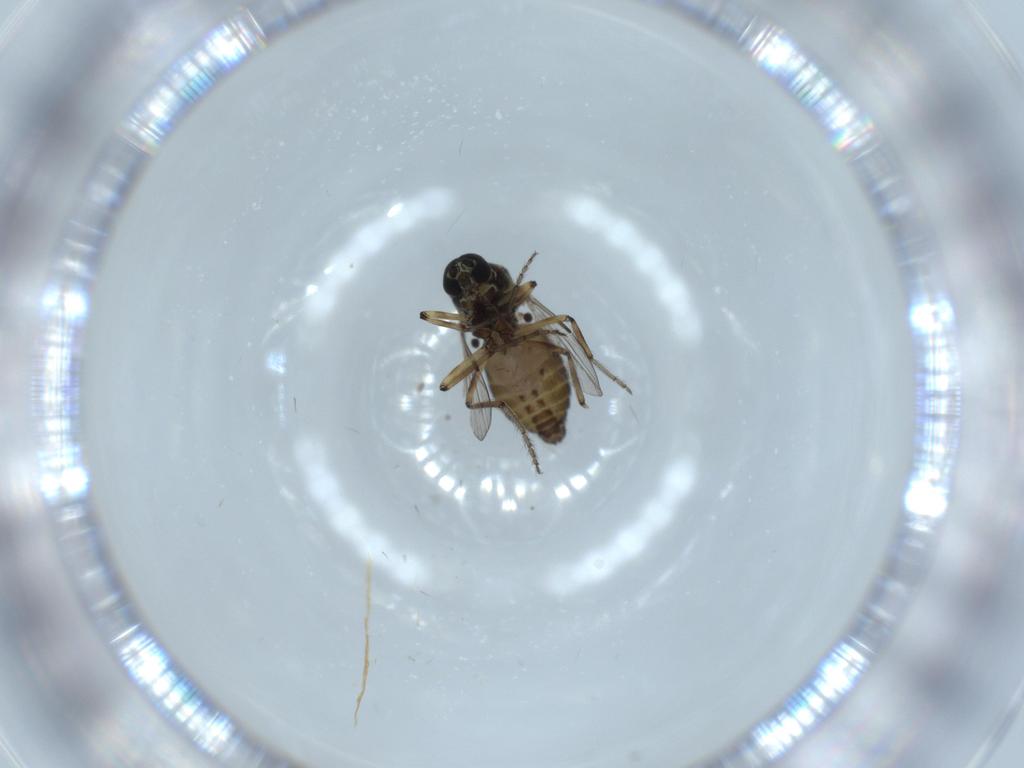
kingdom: Animalia
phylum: Arthropoda
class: Insecta
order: Diptera
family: Ceratopogonidae
